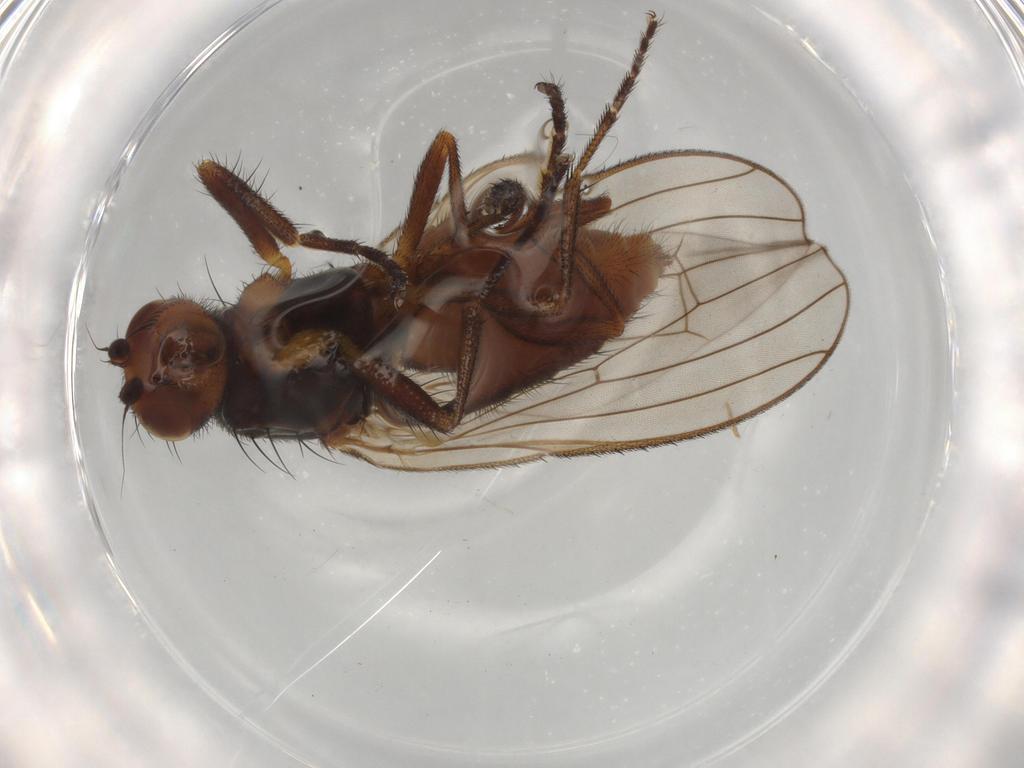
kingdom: Animalia
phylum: Arthropoda
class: Insecta
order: Diptera
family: Heleomyzidae
